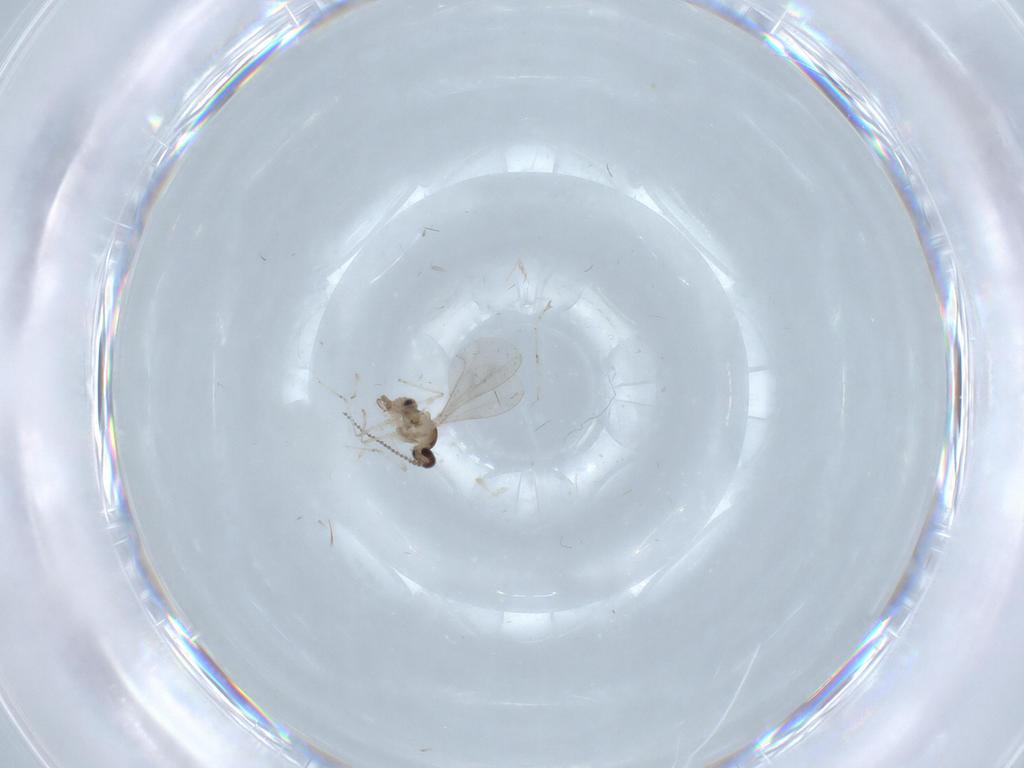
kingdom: Animalia
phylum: Arthropoda
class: Insecta
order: Diptera
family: Cecidomyiidae
